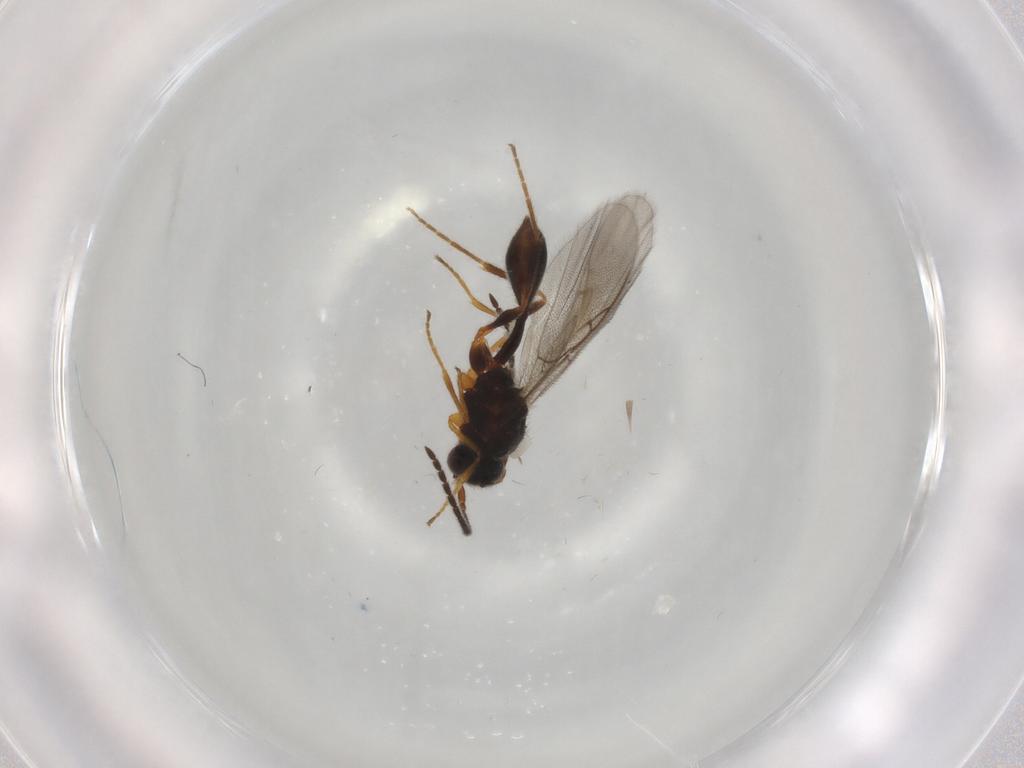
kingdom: Animalia
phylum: Arthropoda
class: Insecta
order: Hymenoptera
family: Diapriidae
